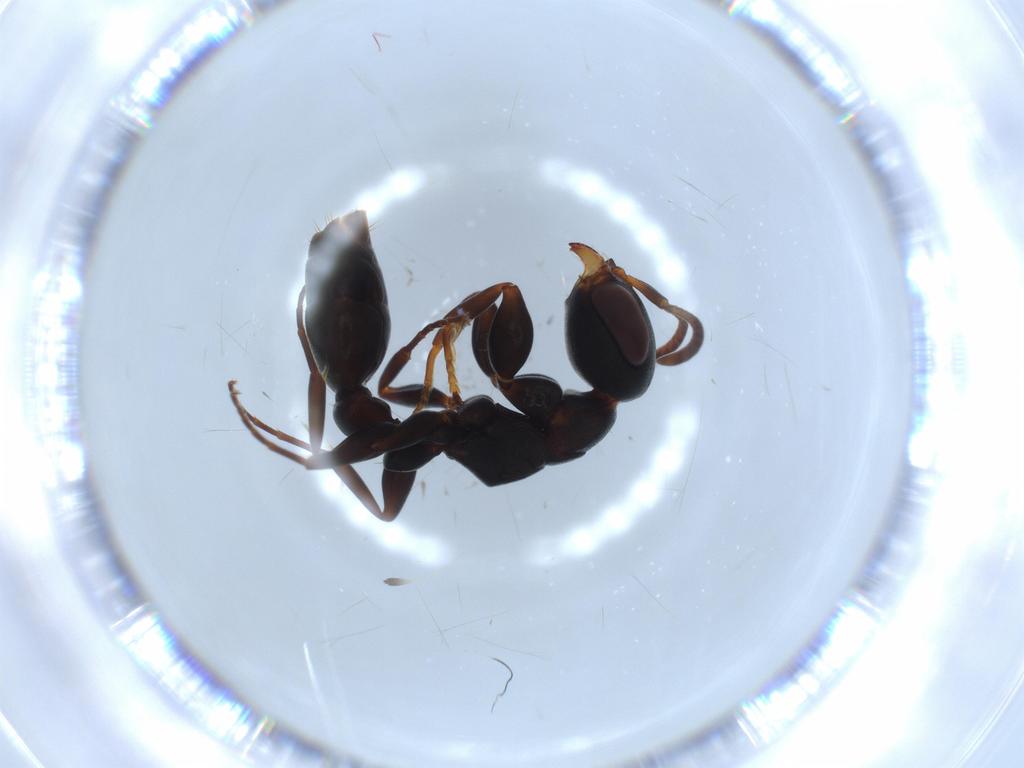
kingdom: Animalia
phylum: Arthropoda
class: Insecta
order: Hymenoptera
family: Formicidae
